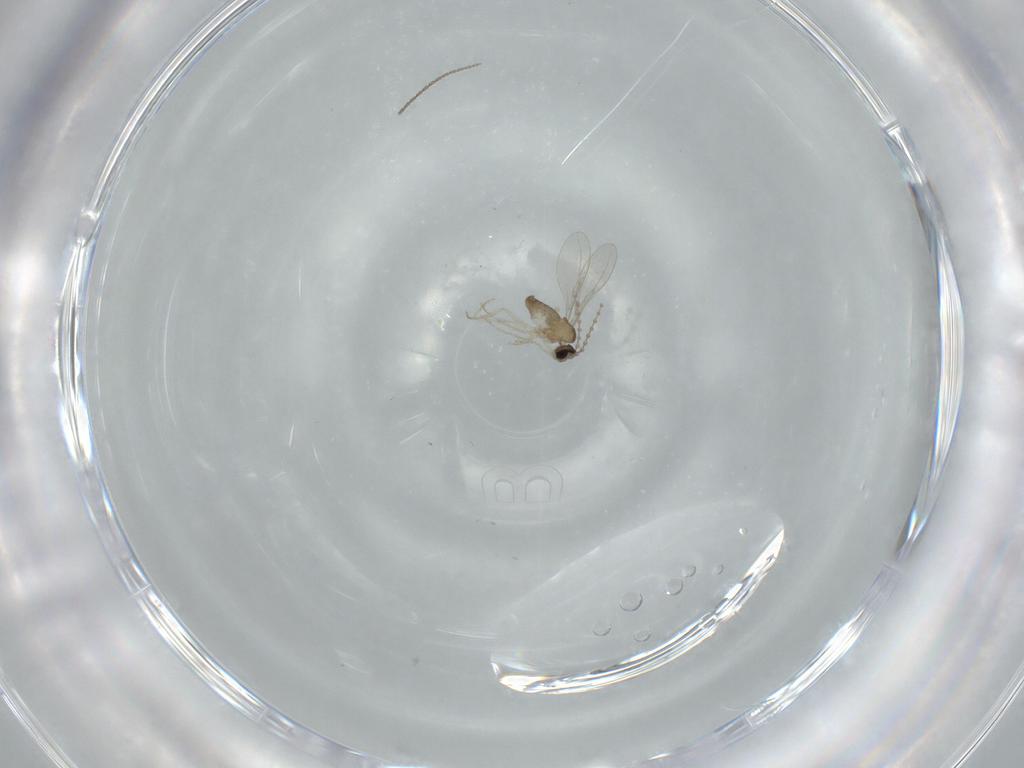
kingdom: Animalia
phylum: Arthropoda
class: Insecta
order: Diptera
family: Cecidomyiidae
